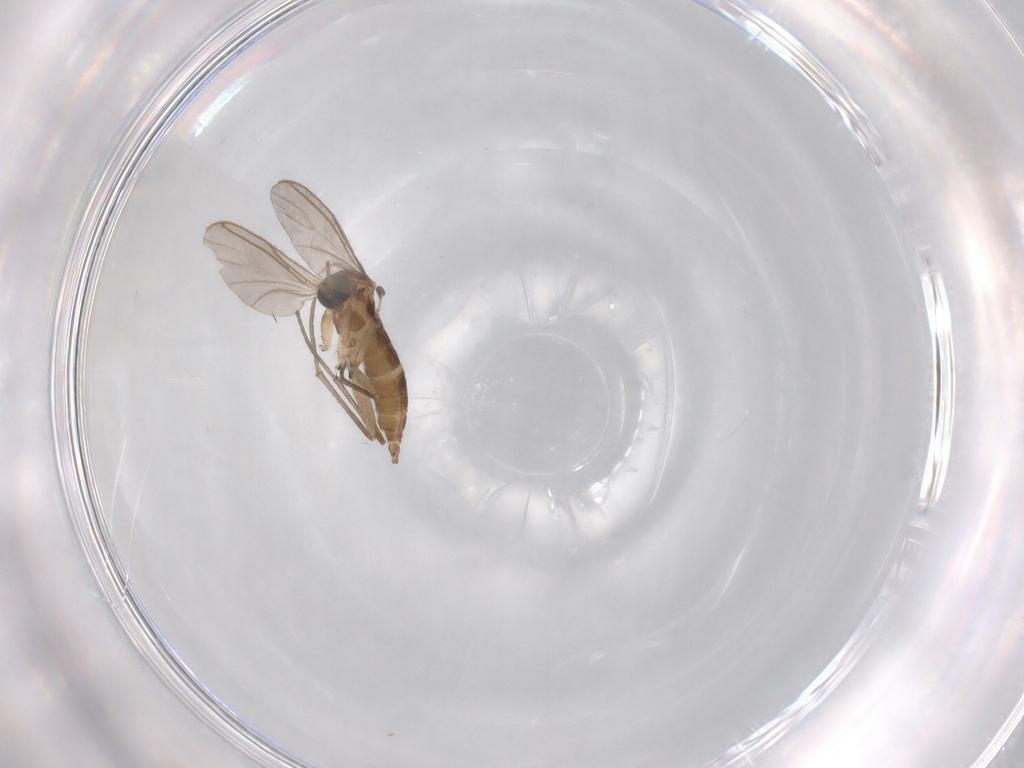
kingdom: Animalia
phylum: Arthropoda
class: Insecta
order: Diptera
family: Sciaridae
